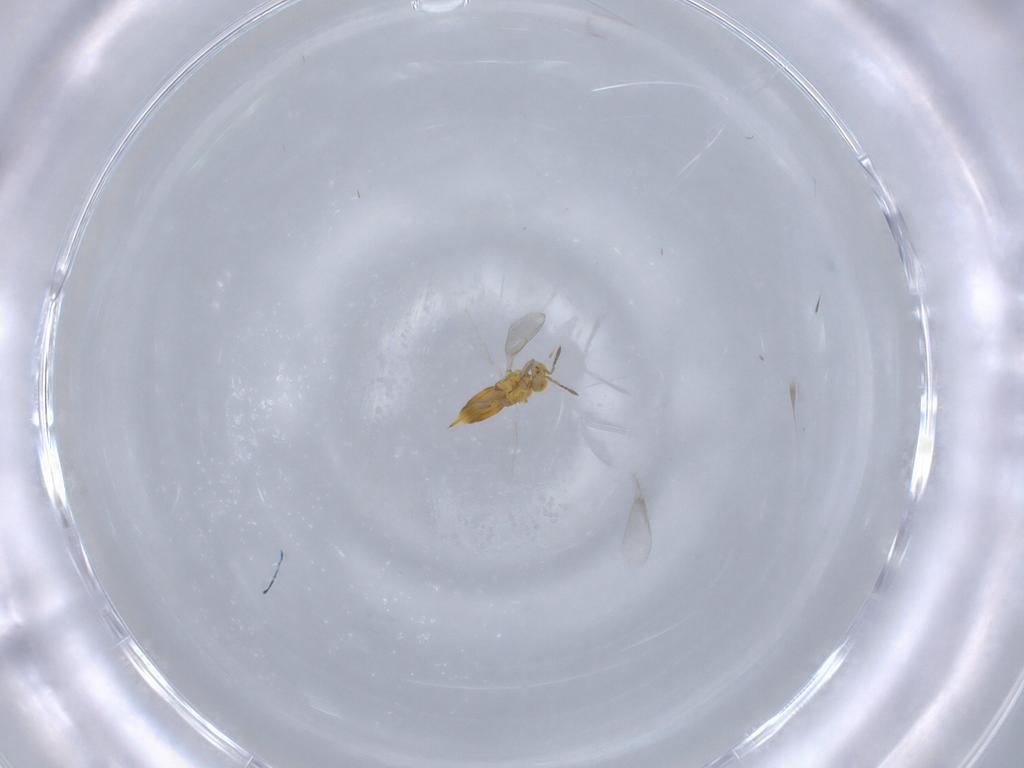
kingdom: Animalia
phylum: Arthropoda
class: Insecta
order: Hymenoptera
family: Aphelinidae
